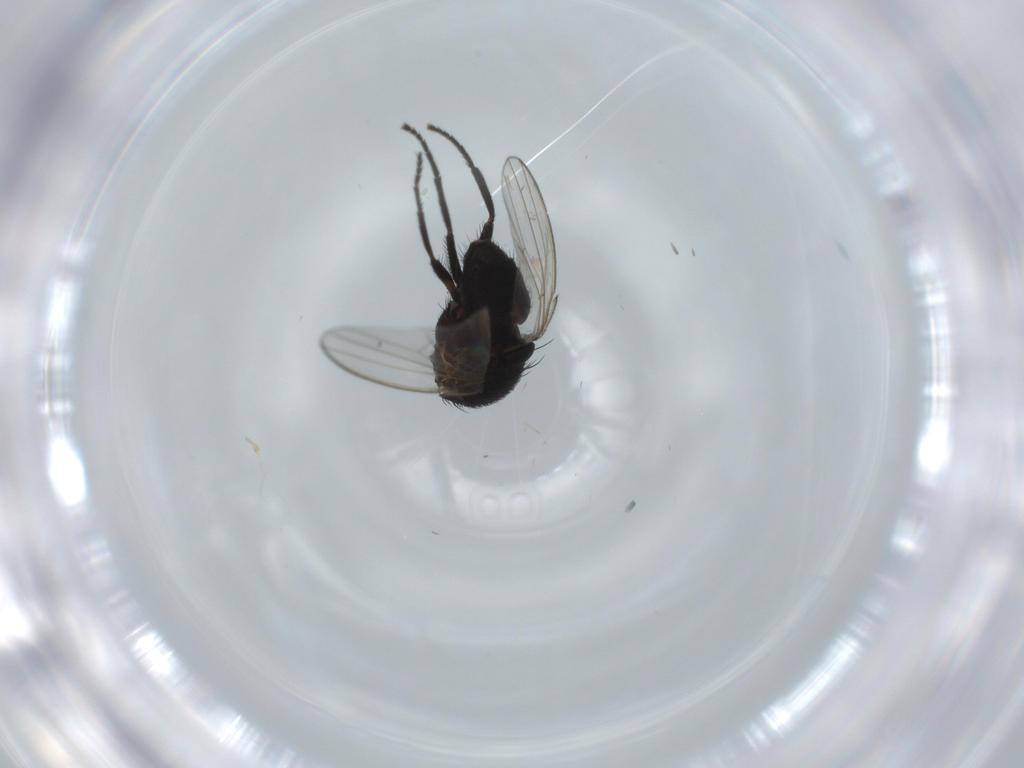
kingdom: Animalia
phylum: Arthropoda
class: Insecta
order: Diptera
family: Milichiidae
